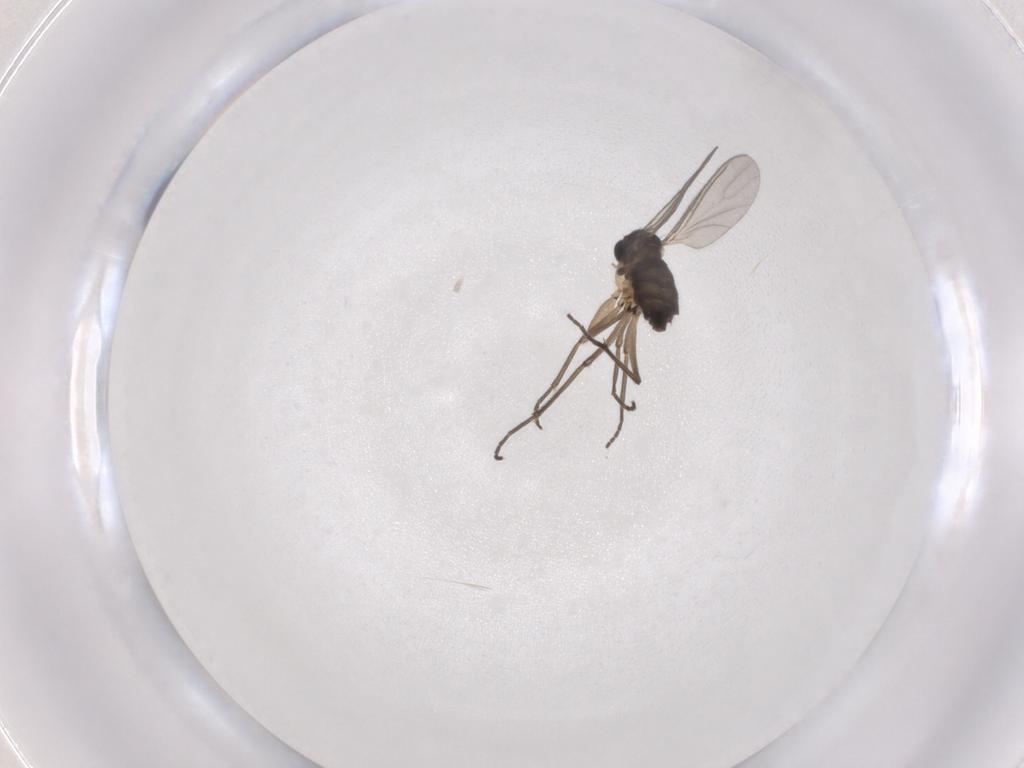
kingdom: Animalia
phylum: Arthropoda
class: Insecta
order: Diptera
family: Sciaridae
